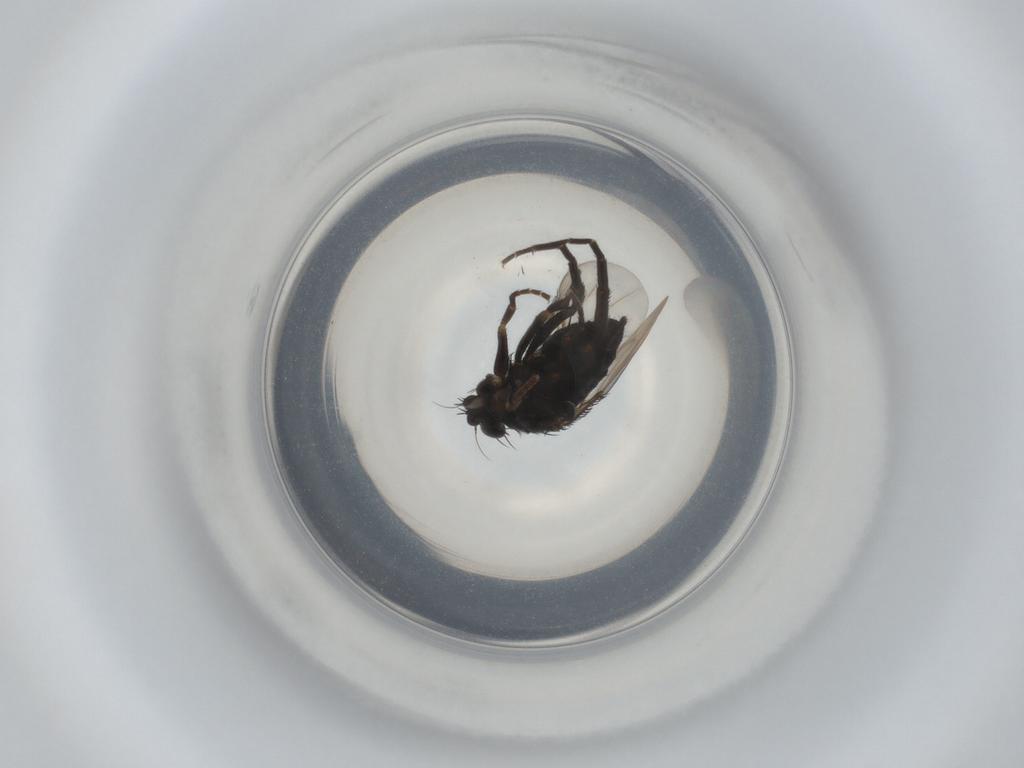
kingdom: Animalia
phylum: Arthropoda
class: Insecta
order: Diptera
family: Phoridae
